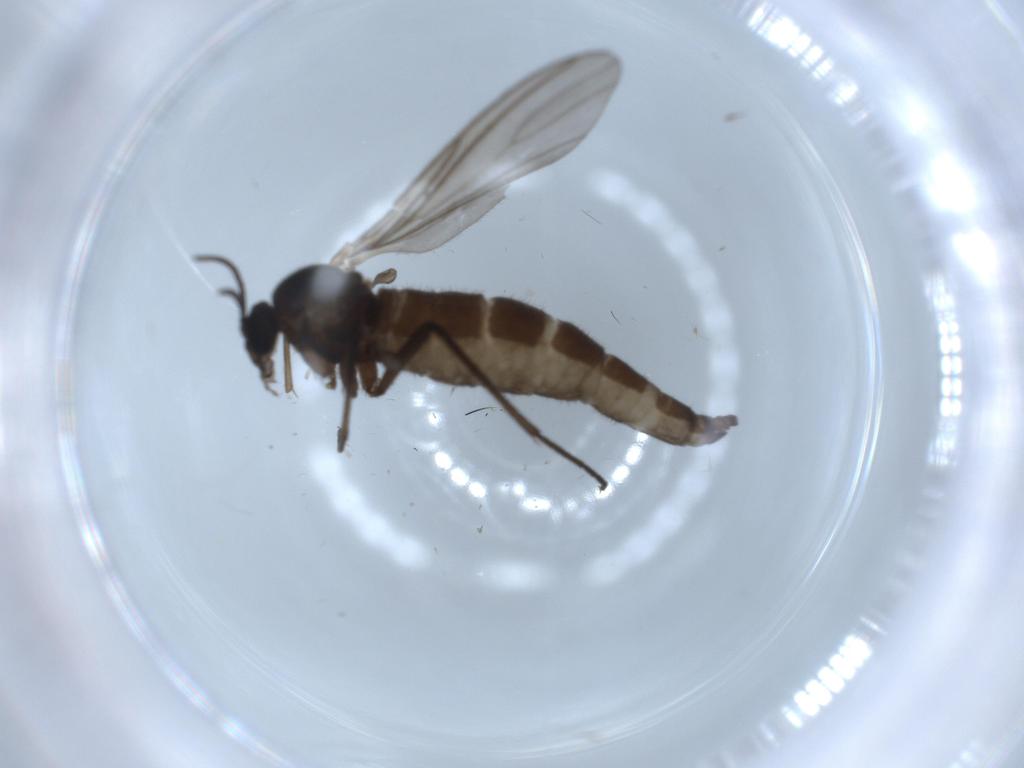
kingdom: Animalia
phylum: Arthropoda
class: Insecta
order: Diptera
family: Sciaridae
